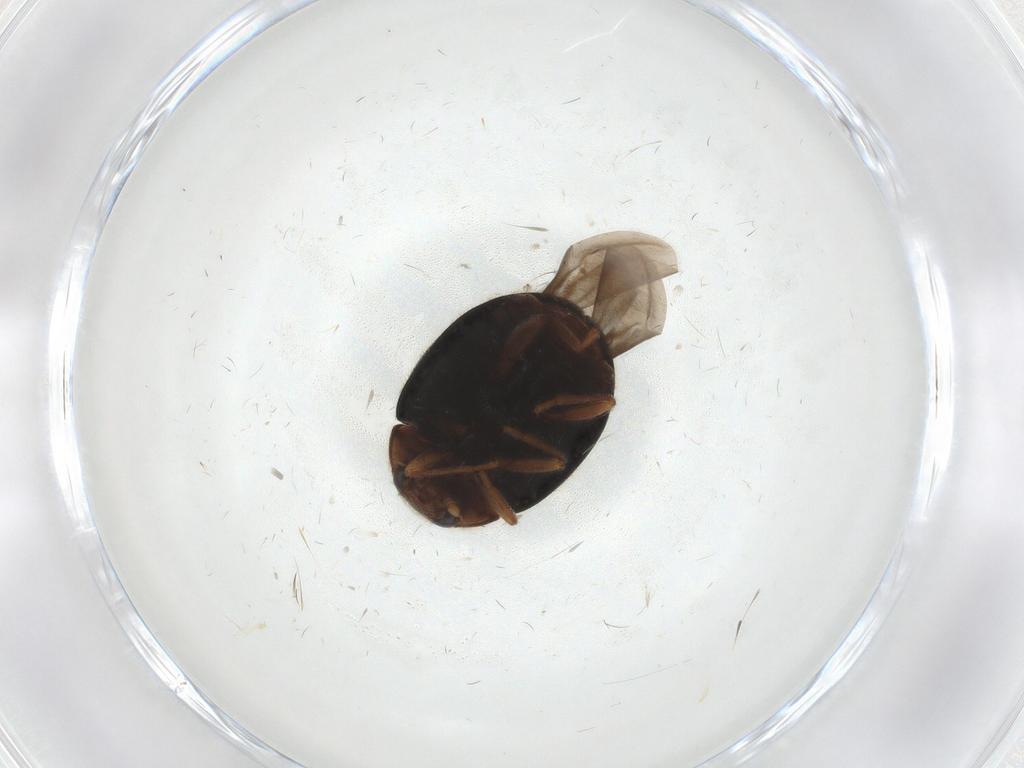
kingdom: Animalia
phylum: Arthropoda
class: Insecta
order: Coleoptera
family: Coccinellidae
